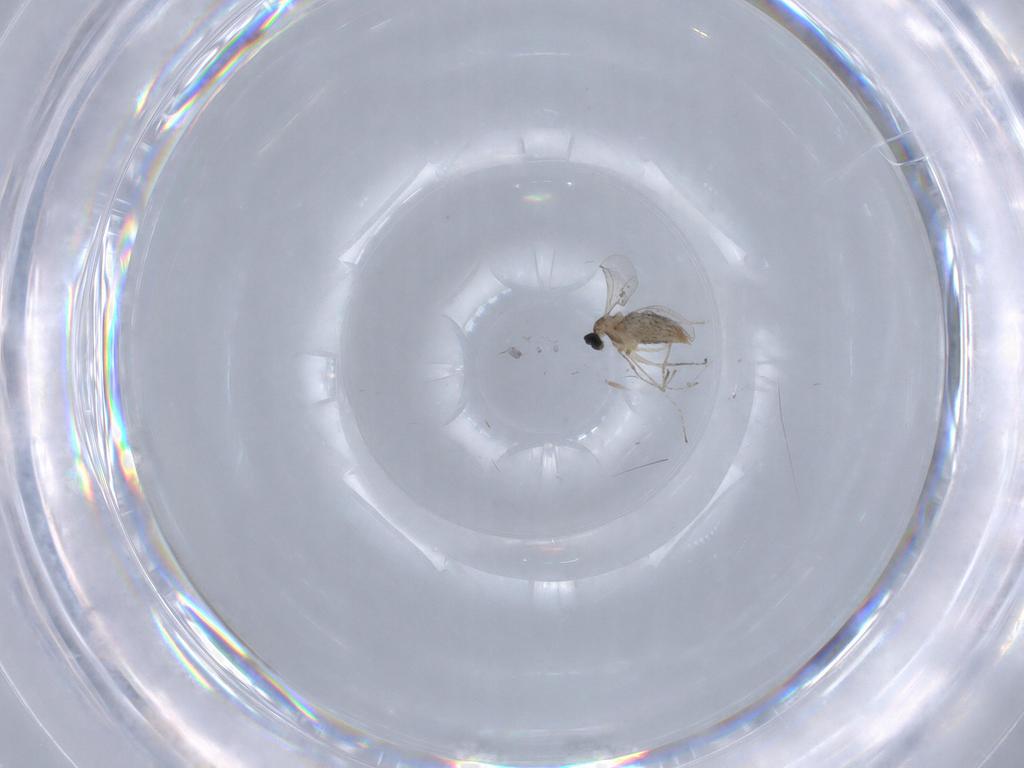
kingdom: Animalia
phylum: Arthropoda
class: Insecta
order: Diptera
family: Cecidomyiidae
